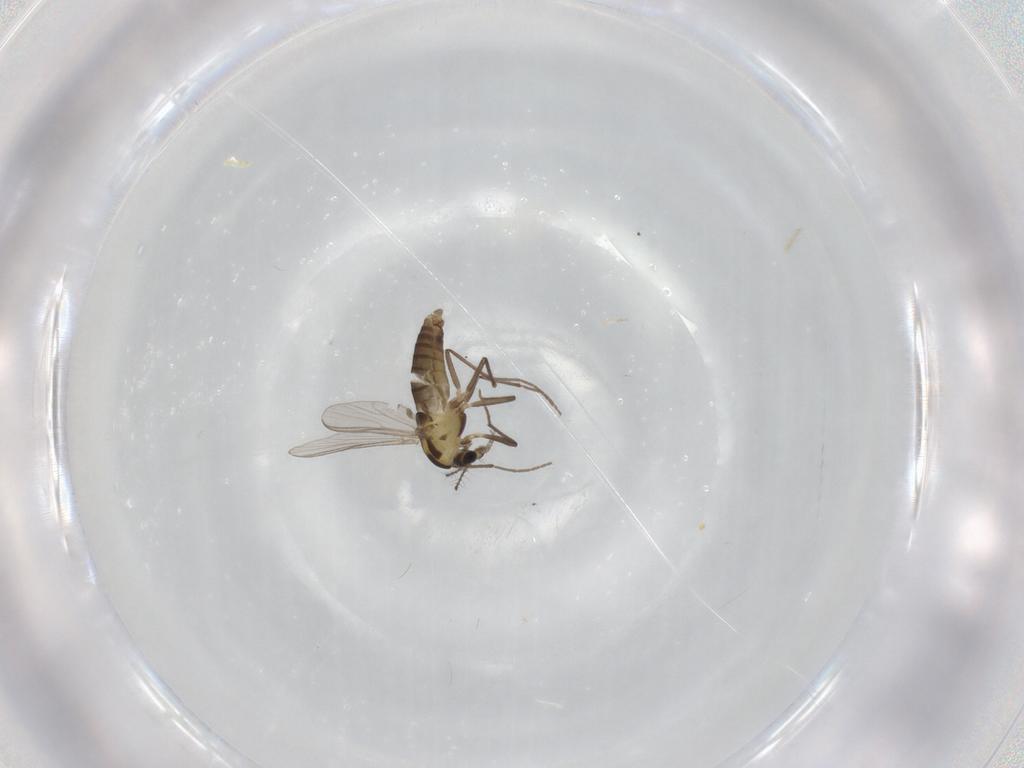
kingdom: Animalia
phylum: Arthropoda
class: Insecta
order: Diptera
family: Chironomidae
